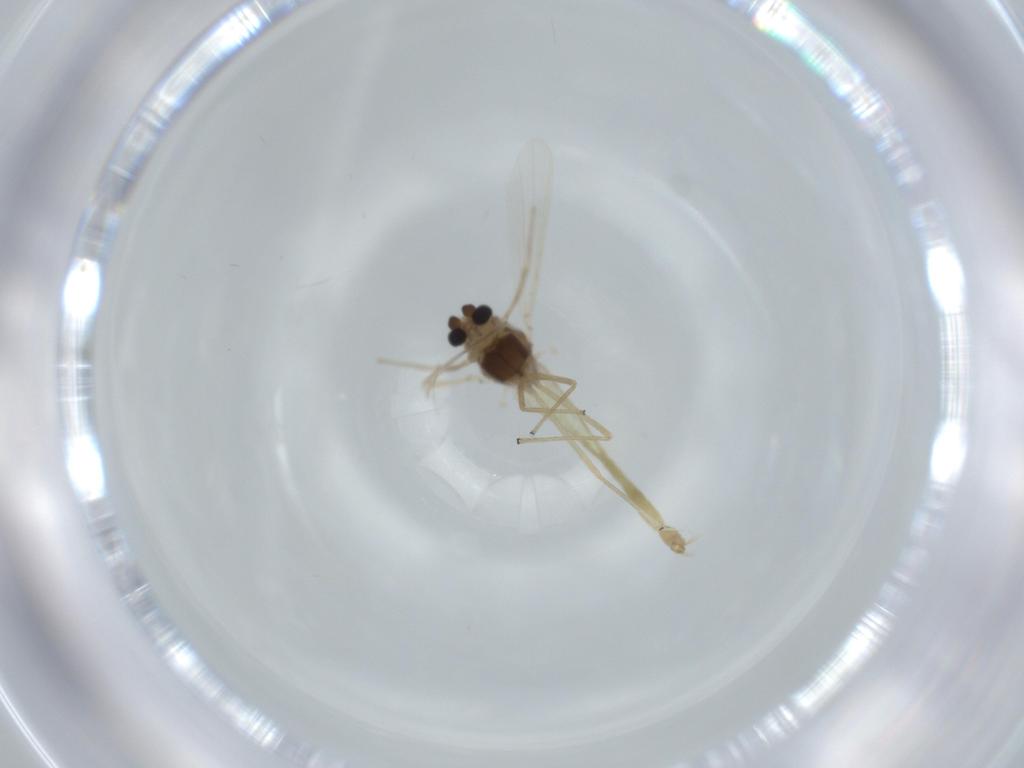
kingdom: Animalia
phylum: Arthropoda
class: Insecta
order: Diptera
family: Chironomidae
